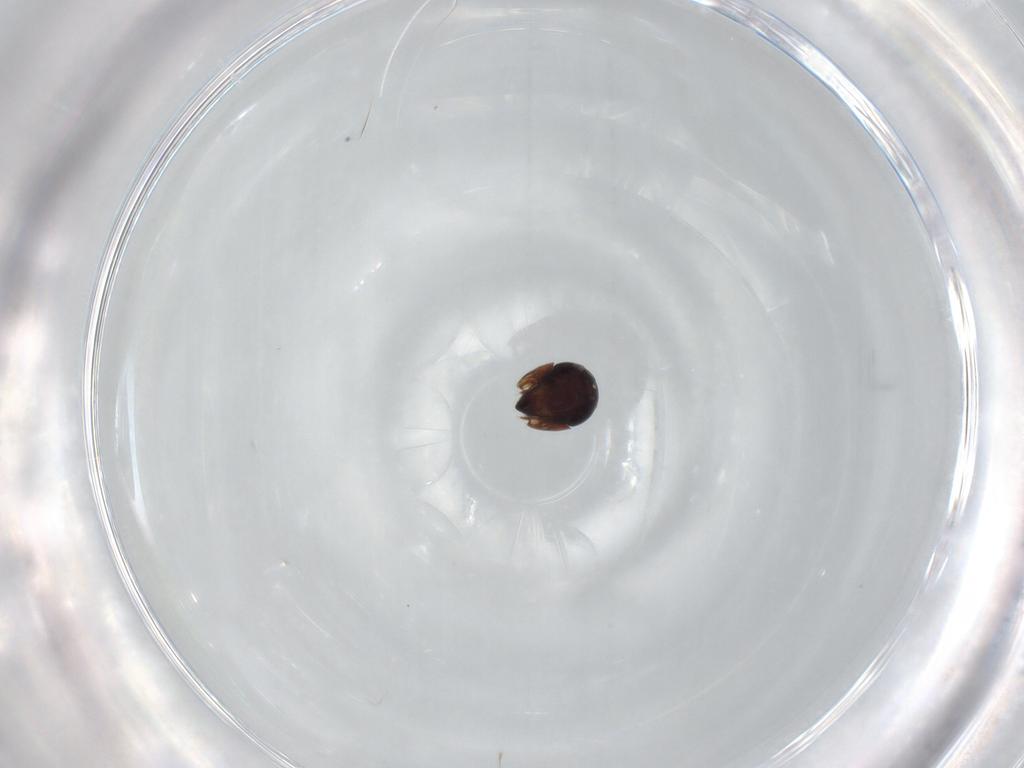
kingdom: Animalia
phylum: Arthropoda
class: Arachnida
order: Sarcoptiformes
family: Ceratozetidae
